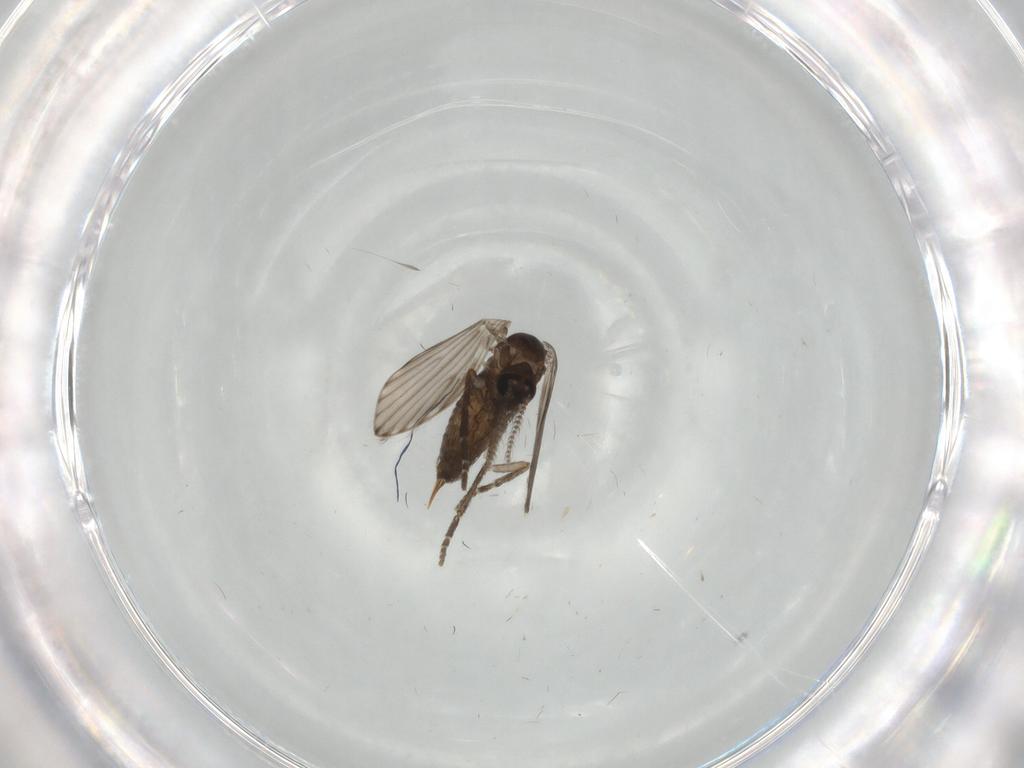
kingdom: Animalia
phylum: Arthropoda
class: Insecta
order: Diptera
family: Psychodidae
